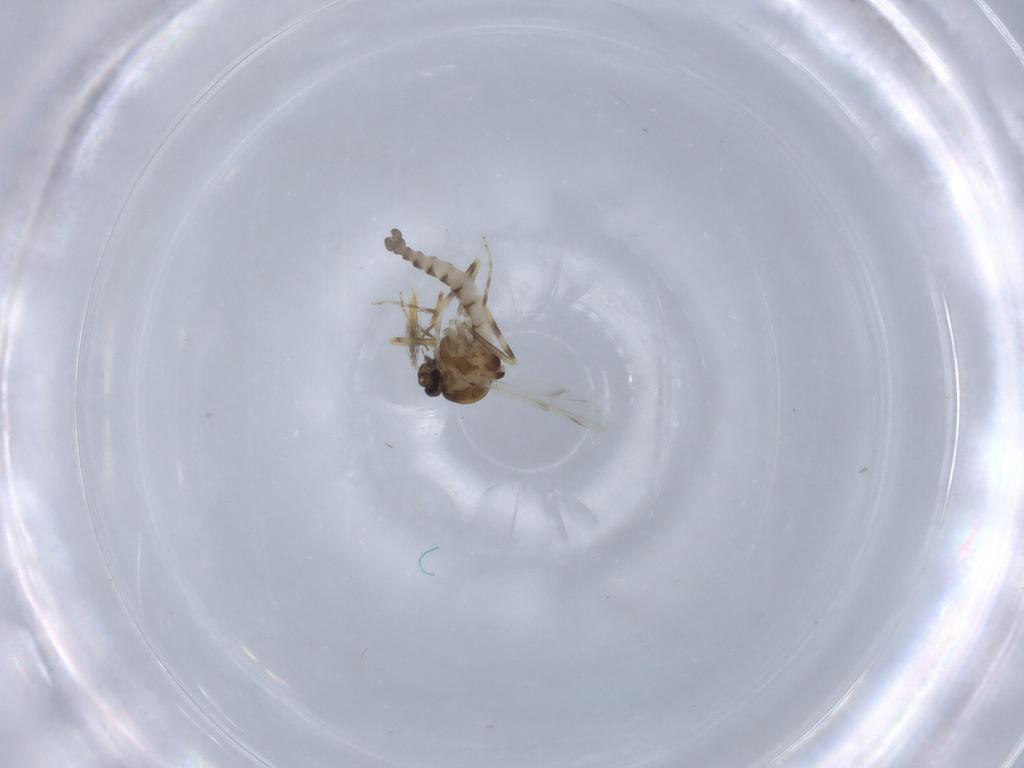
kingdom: Animalia
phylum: Arthropoda
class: Insecta
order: Diptera
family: Ceratopogonidae
